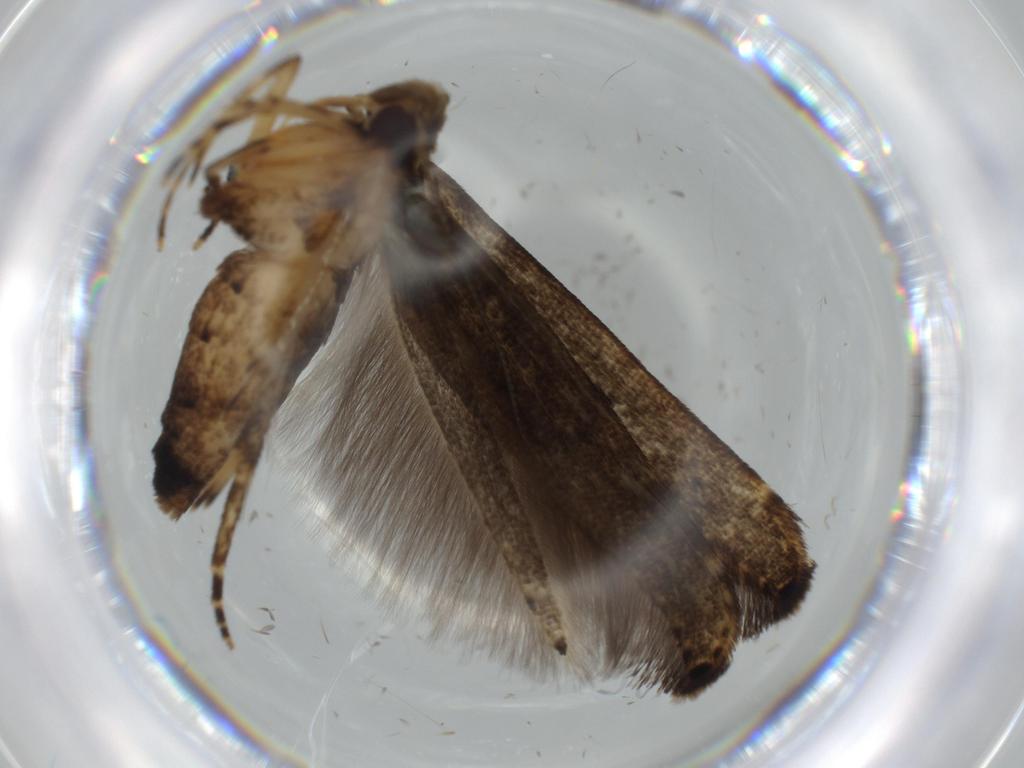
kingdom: Animalia
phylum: Arthropoda
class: Insecta
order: Lepidoptera
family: Cosmopterigidae
